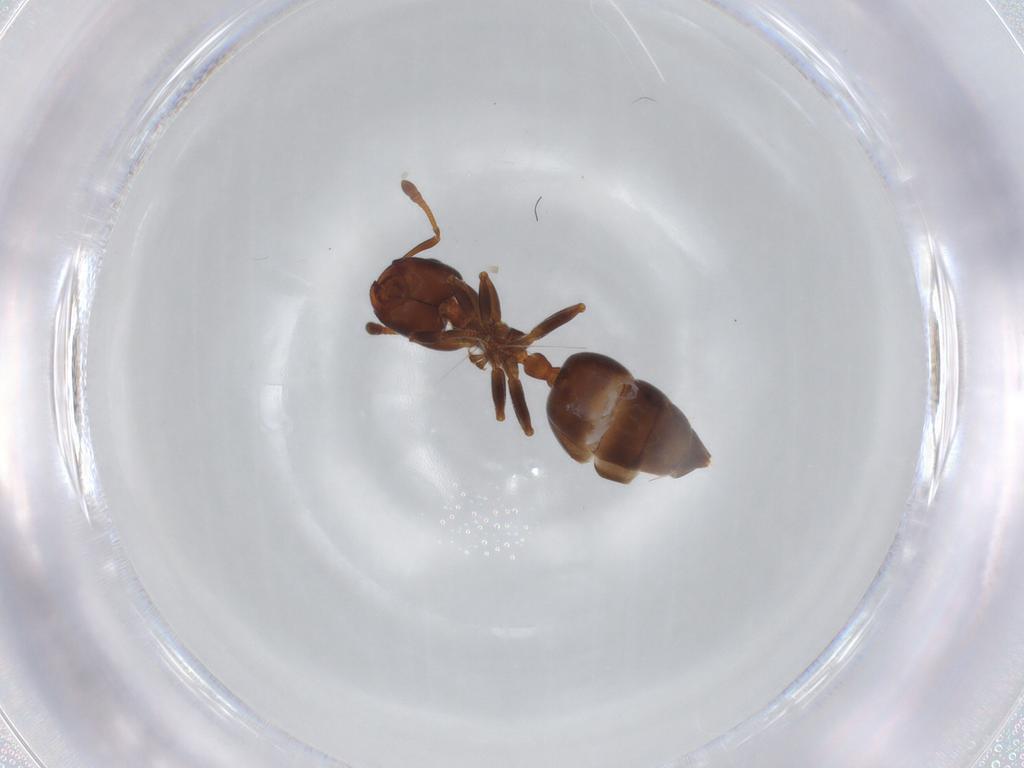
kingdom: Animalia
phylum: Arthropoda
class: Insecta
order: Hymenoptera
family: Formicidae
